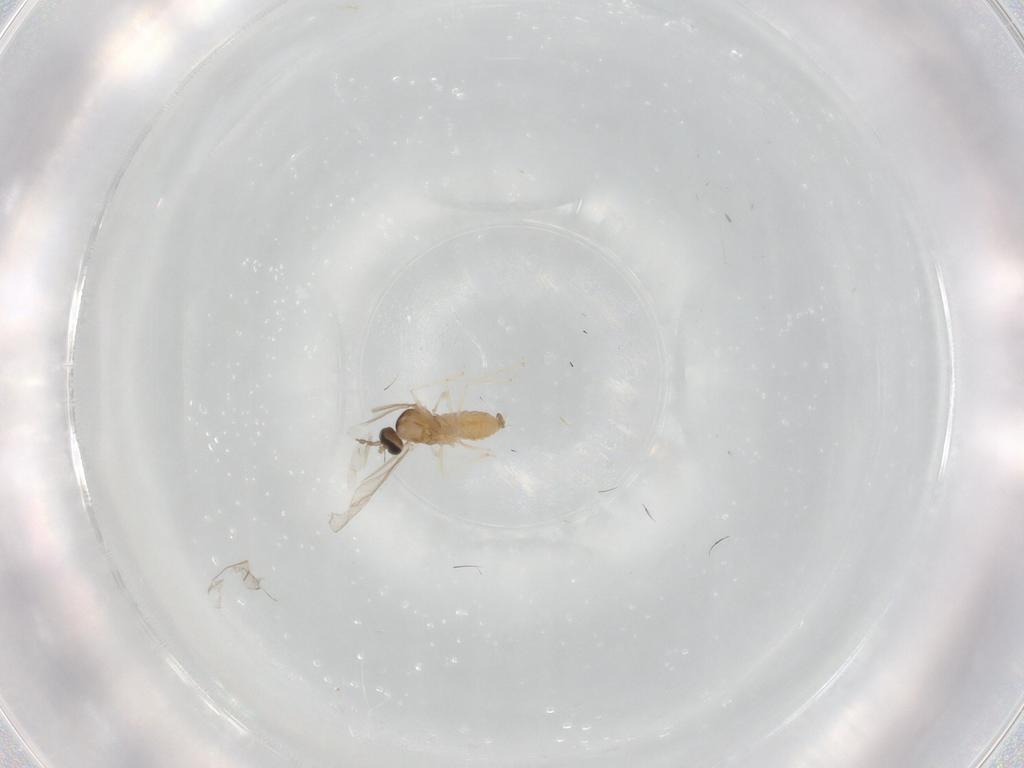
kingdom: Animalia
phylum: Arthropoda
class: Insecta
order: Diptera
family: Cecidomyiidae
